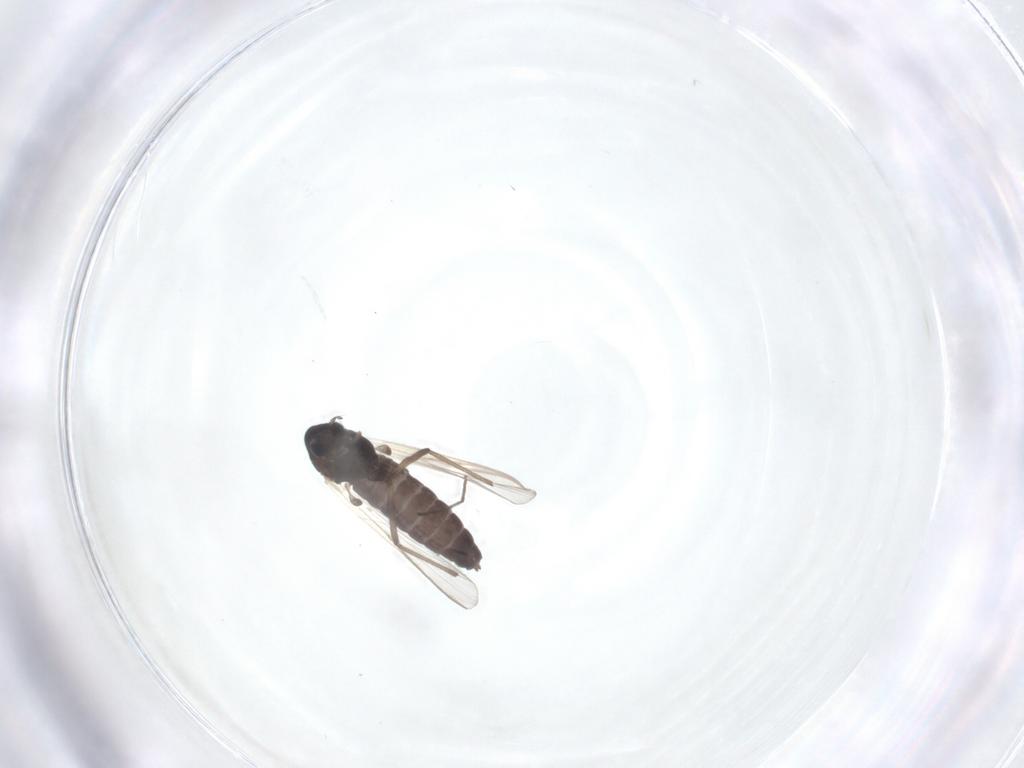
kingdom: Animalia
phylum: Arthropoda
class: Insecta
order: Diptera
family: Chironomidae
